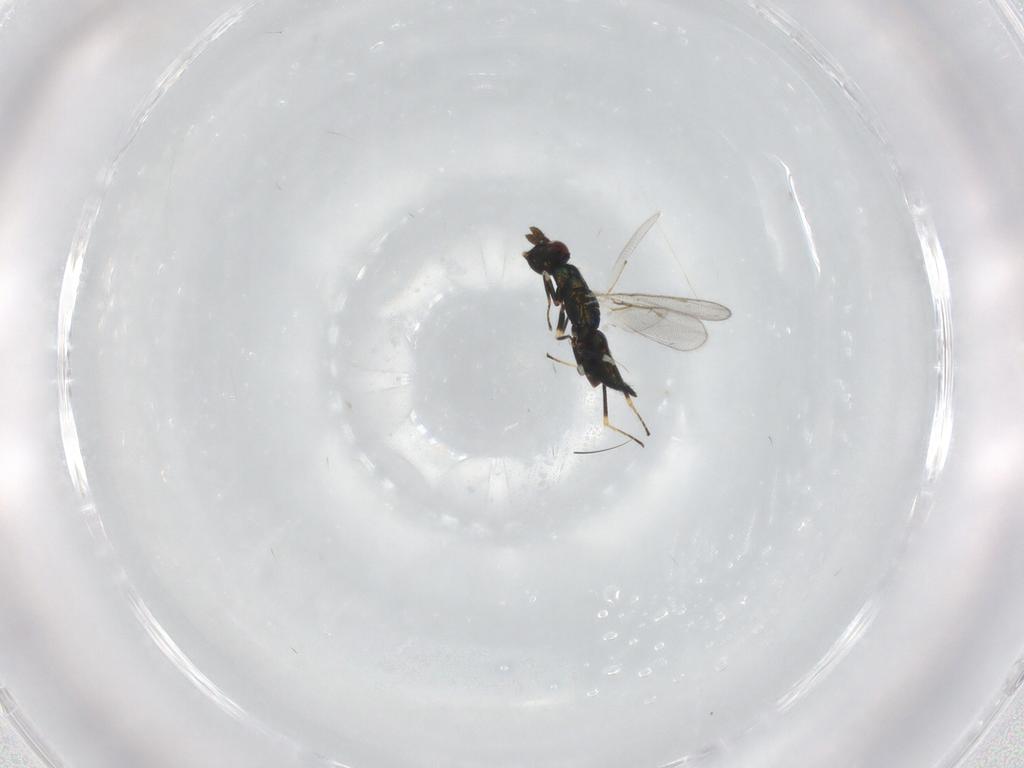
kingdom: Animalia
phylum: Arthropoda
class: Insecta
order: Hymenoptera
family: Eulophidae
